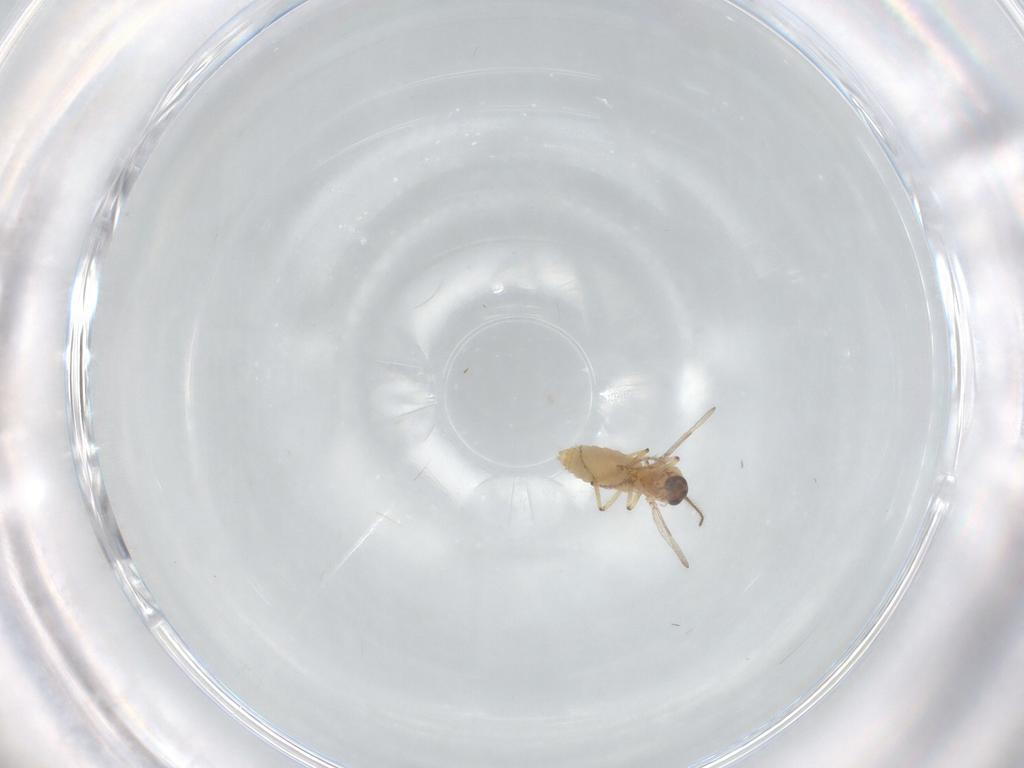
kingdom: Animalia
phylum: Arthropoda
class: Insecta
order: Diptera
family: Ceratopogonidae
